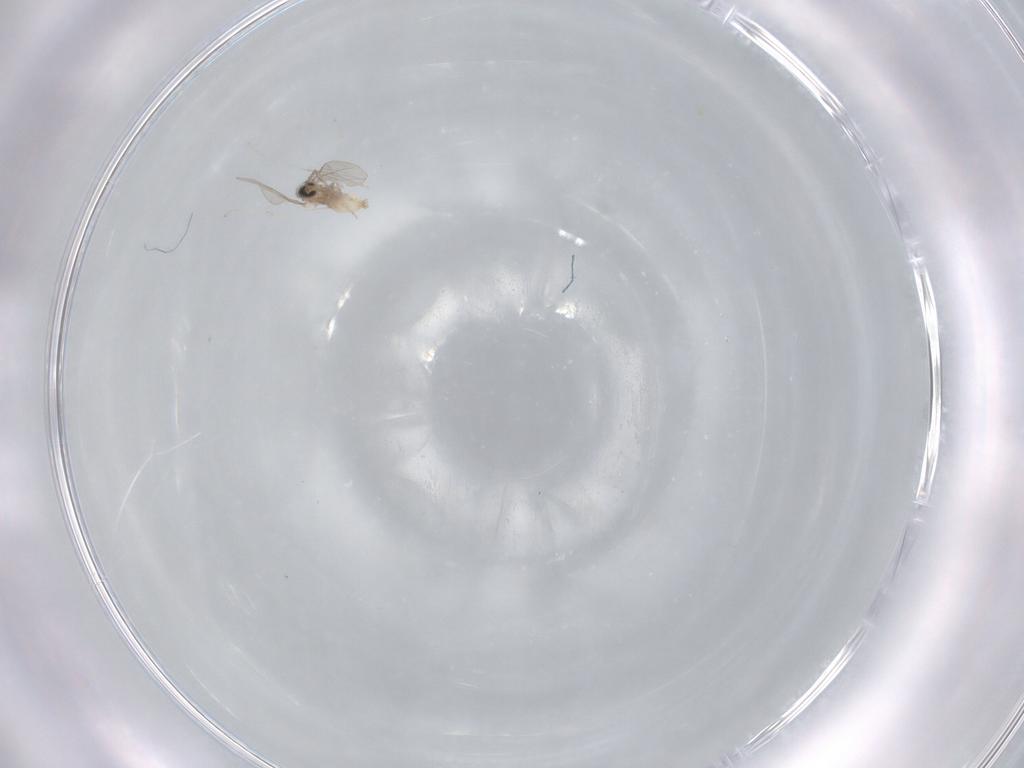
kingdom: Animalia
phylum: Arthropoda
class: Insecta
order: Diptera
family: Cecidomyiidae
